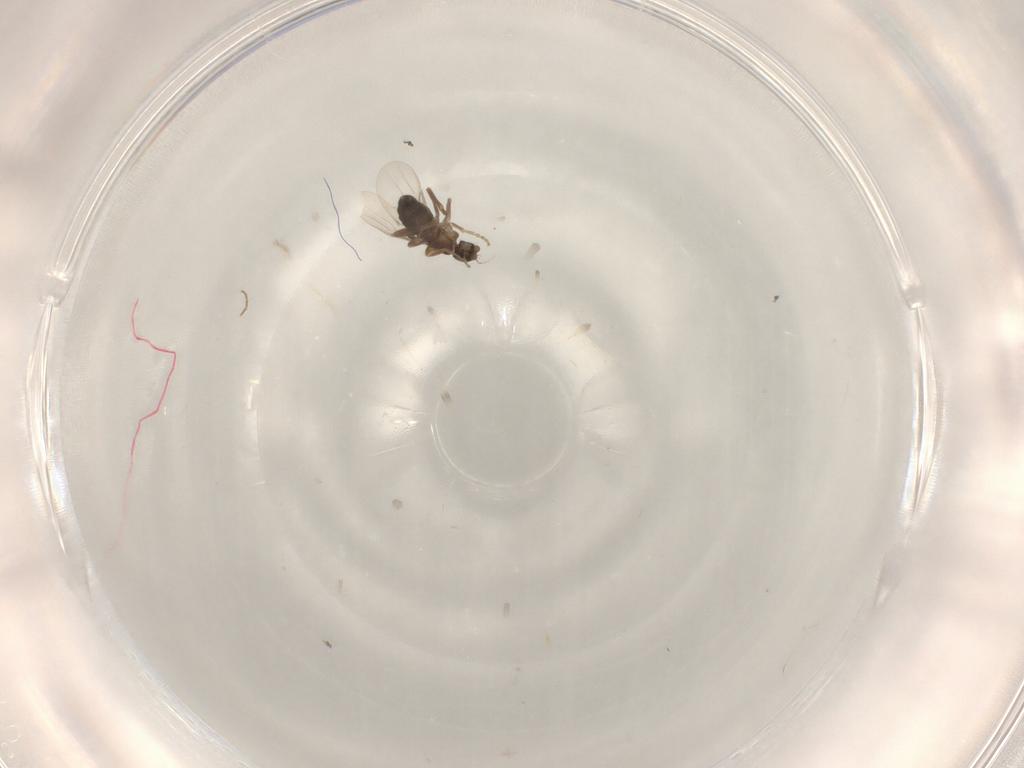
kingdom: Animalia
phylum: Arthropoda
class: Insecta
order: Diptera
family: Phoridae
